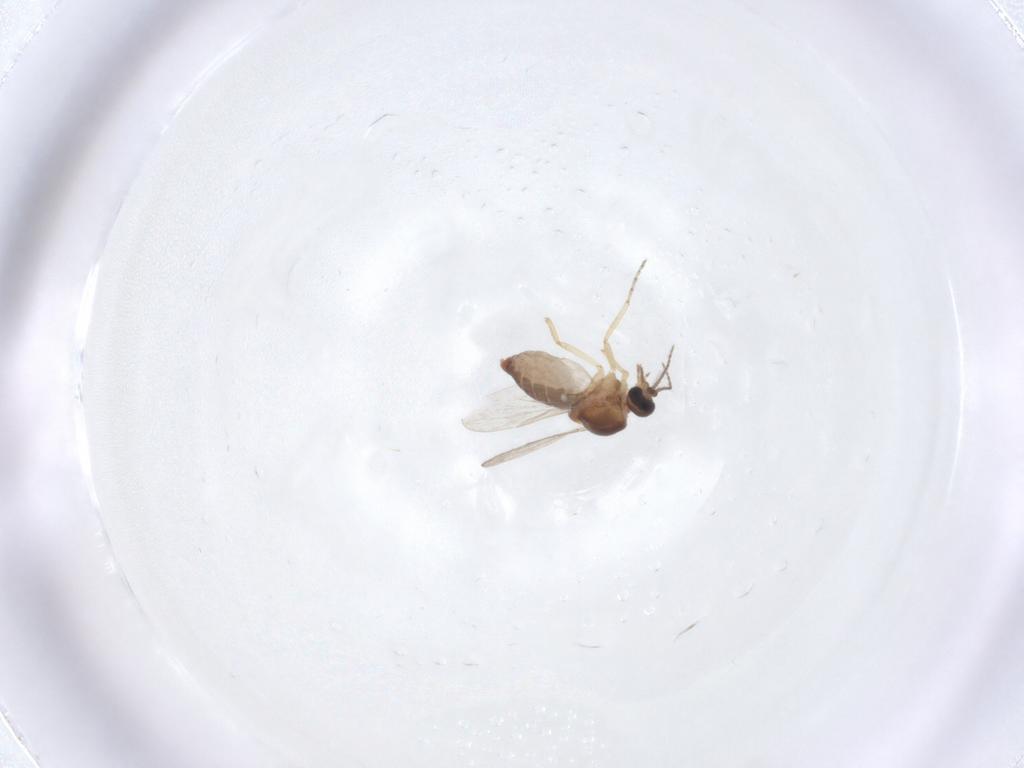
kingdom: Animalia
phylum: Arthropoda
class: Insecta
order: Diptera
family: Ceratopogonidae
